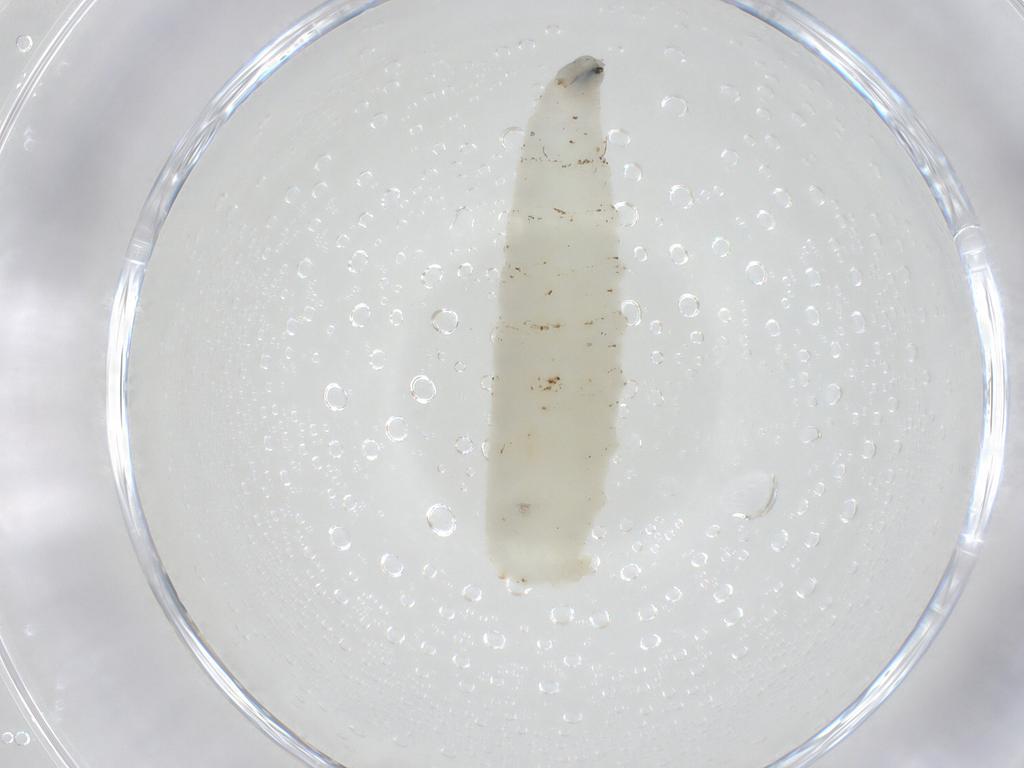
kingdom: Animalia
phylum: Arthropoda
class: Insecta
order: Diptera
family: Anthomyiidae
